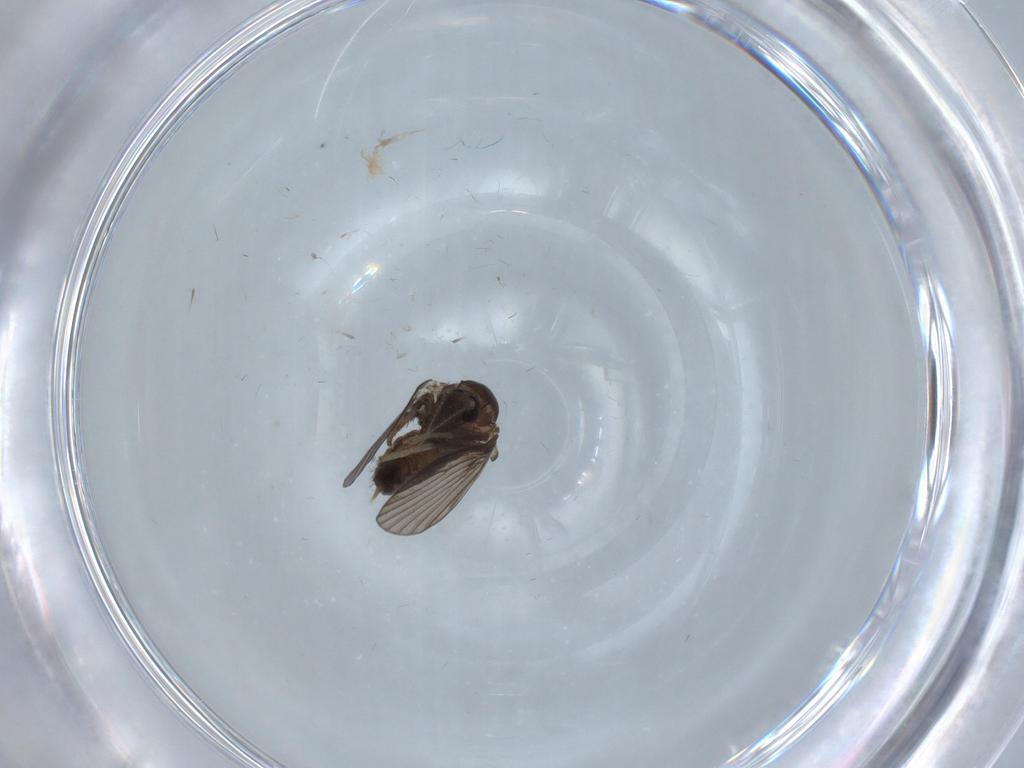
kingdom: Animalia
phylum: Arthropoda
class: Insecta
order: Diptera
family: Psychodidae
